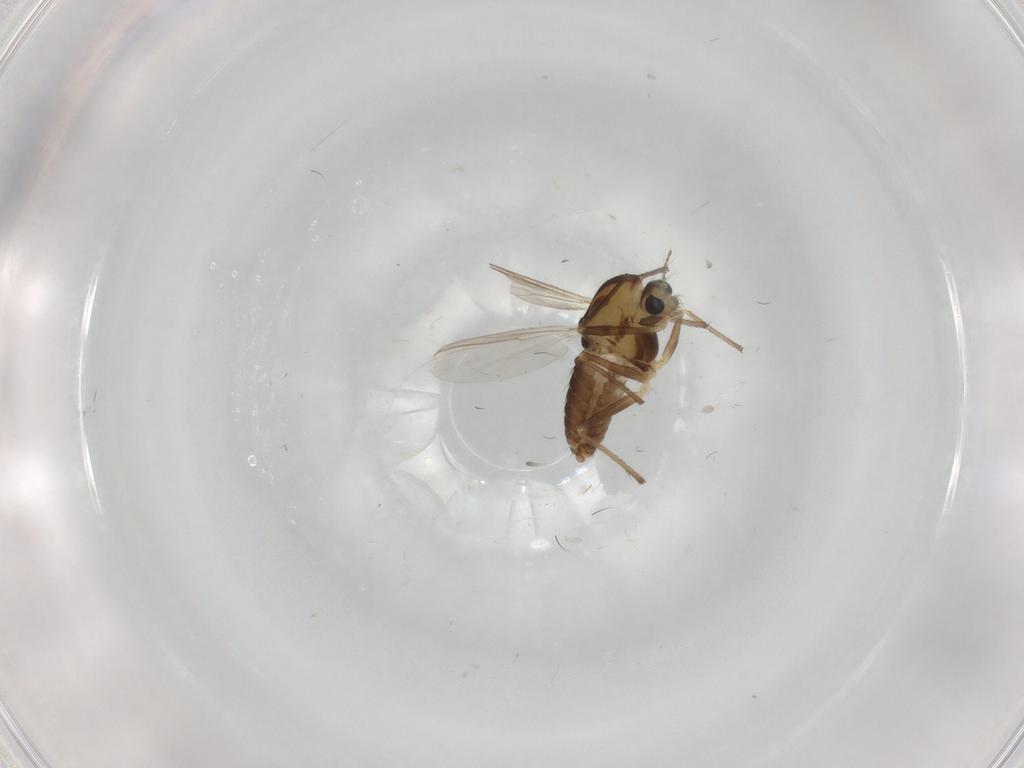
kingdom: Animalia
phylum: Arthropoda
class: Insecta
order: Diptera
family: Chironomidae
